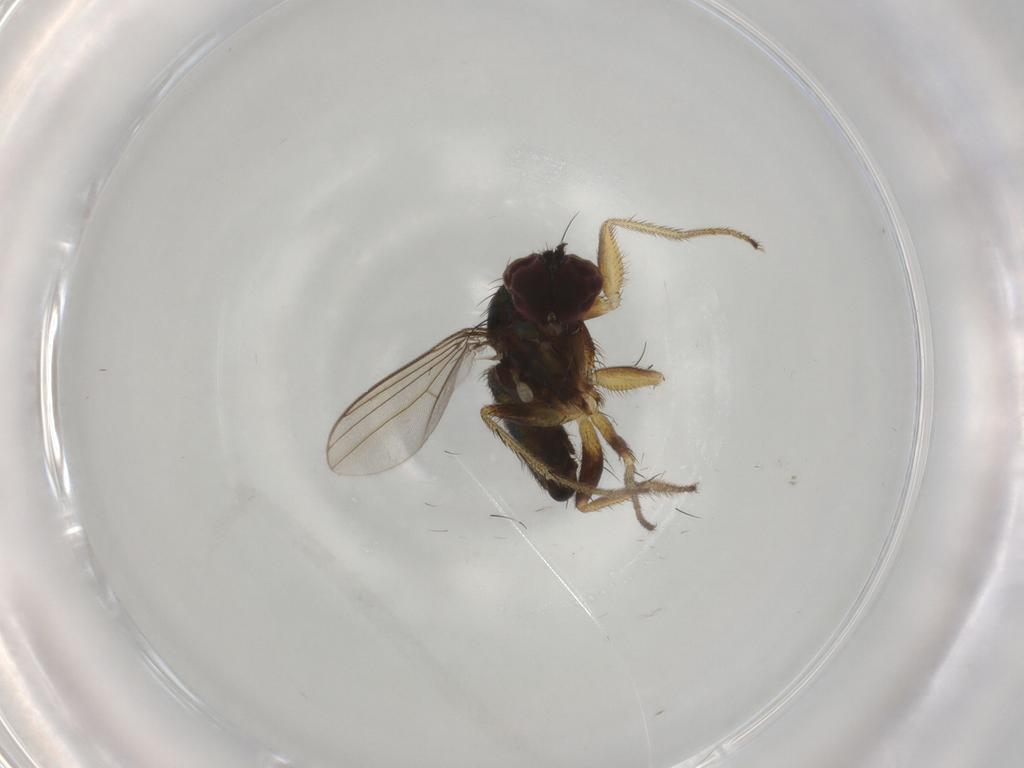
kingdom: Animalia
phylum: Arthropoda
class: Insecta
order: Diptera
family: Dolichopodidae
